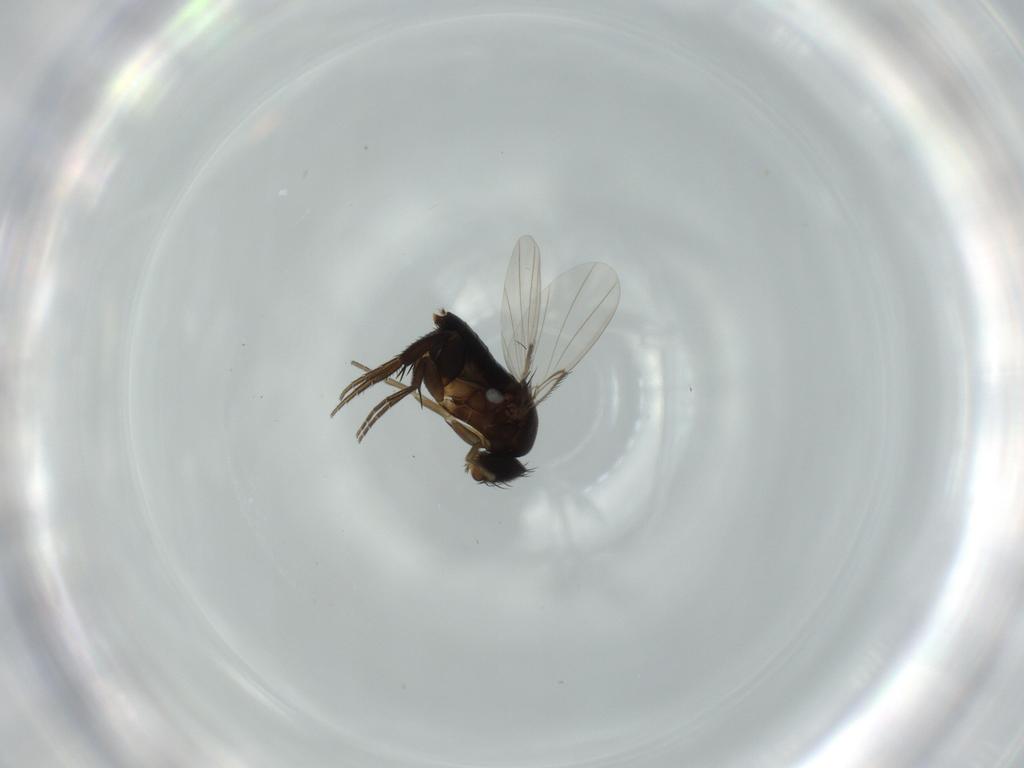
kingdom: Animalia
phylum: Arthropoda
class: Insecta
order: Diptera
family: Phoridae
